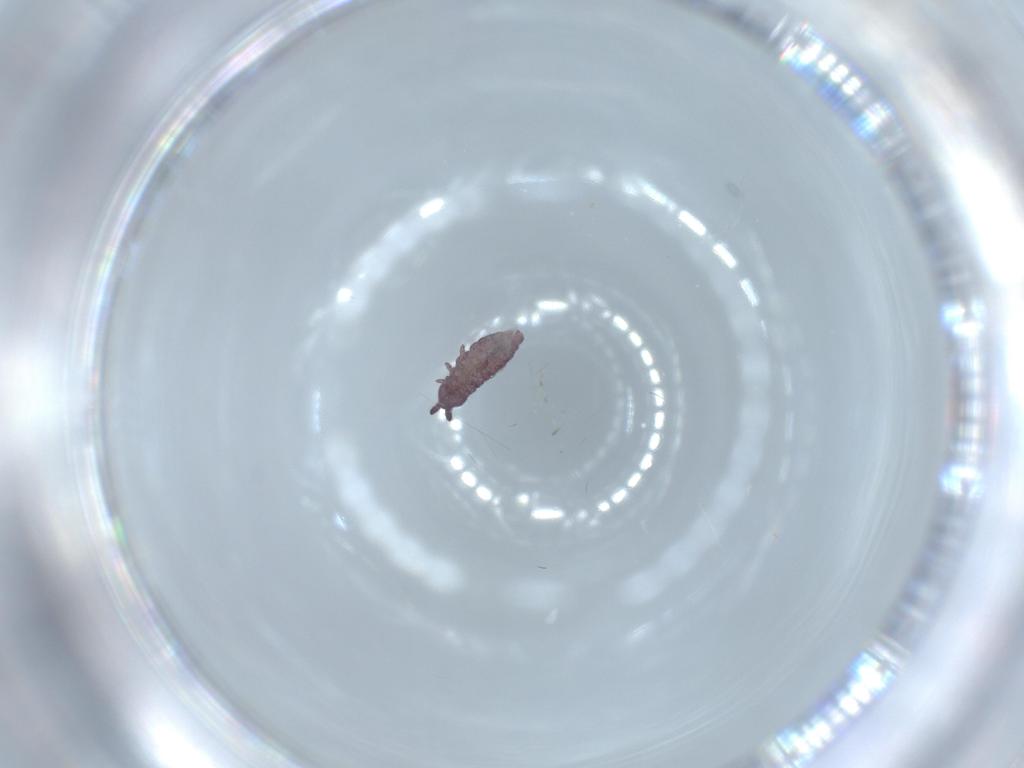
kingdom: Animalia
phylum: Arthropoda
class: Collembola
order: Poduromorpha
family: Hypogastruridae
